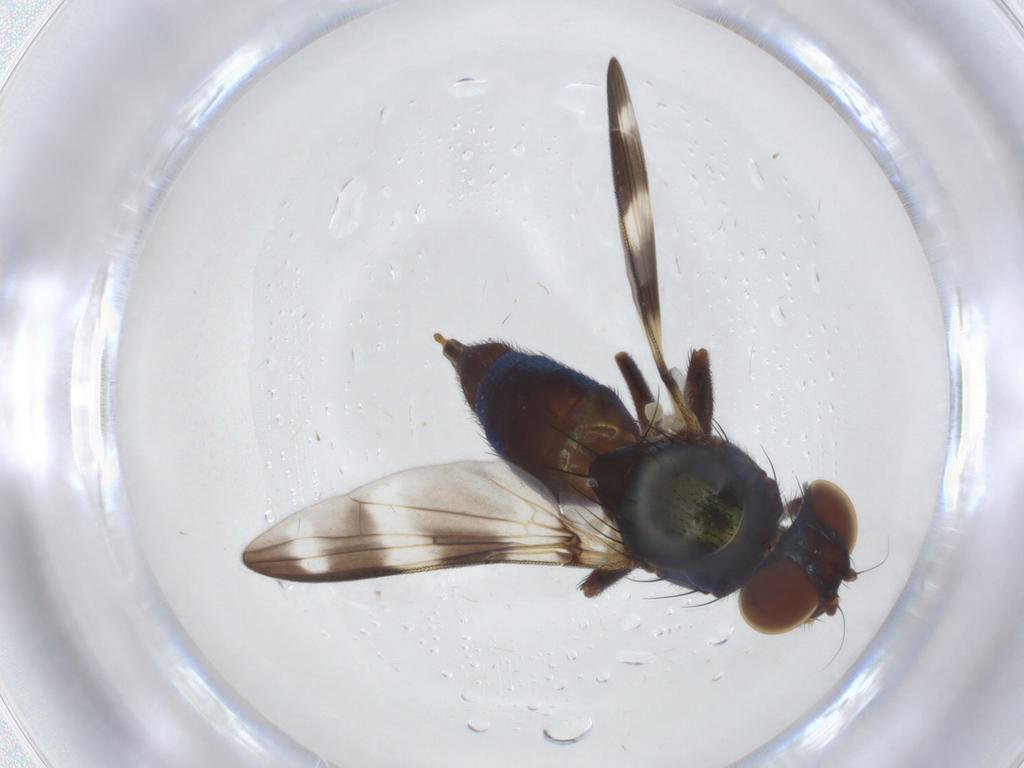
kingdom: Animalia
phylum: Arthropoda
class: Insecta
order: Diptera
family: Ulidiidae
